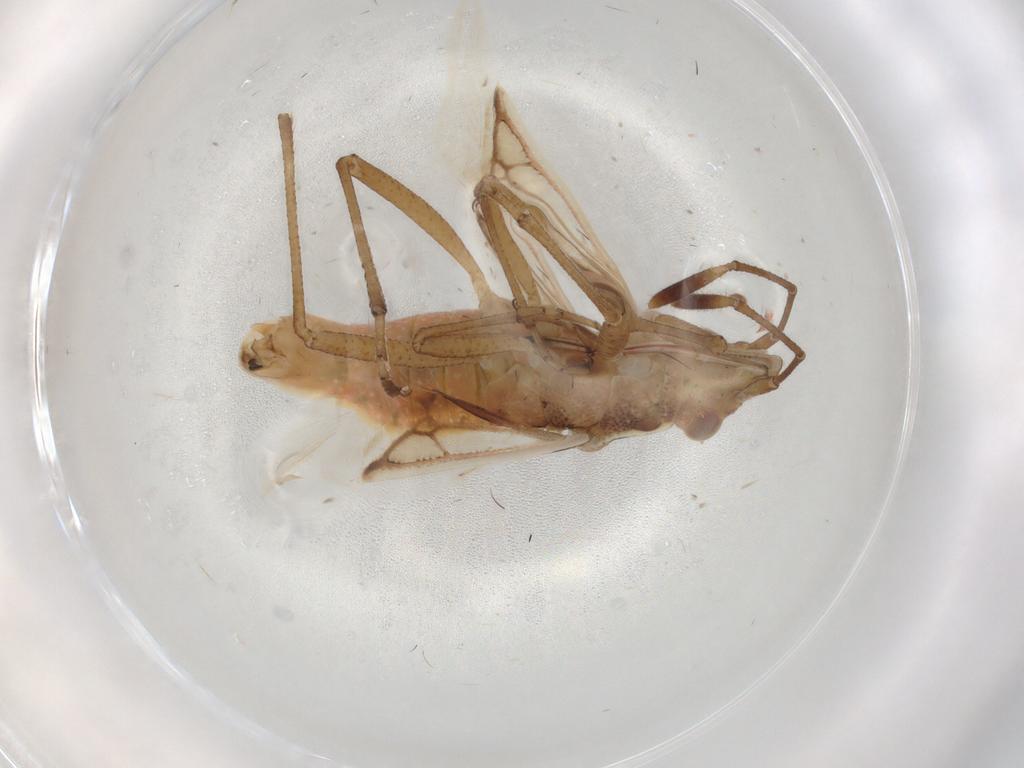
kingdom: Animalia
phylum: Arthropoda
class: Insecta
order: Hemiptera
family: Rhopalidae
